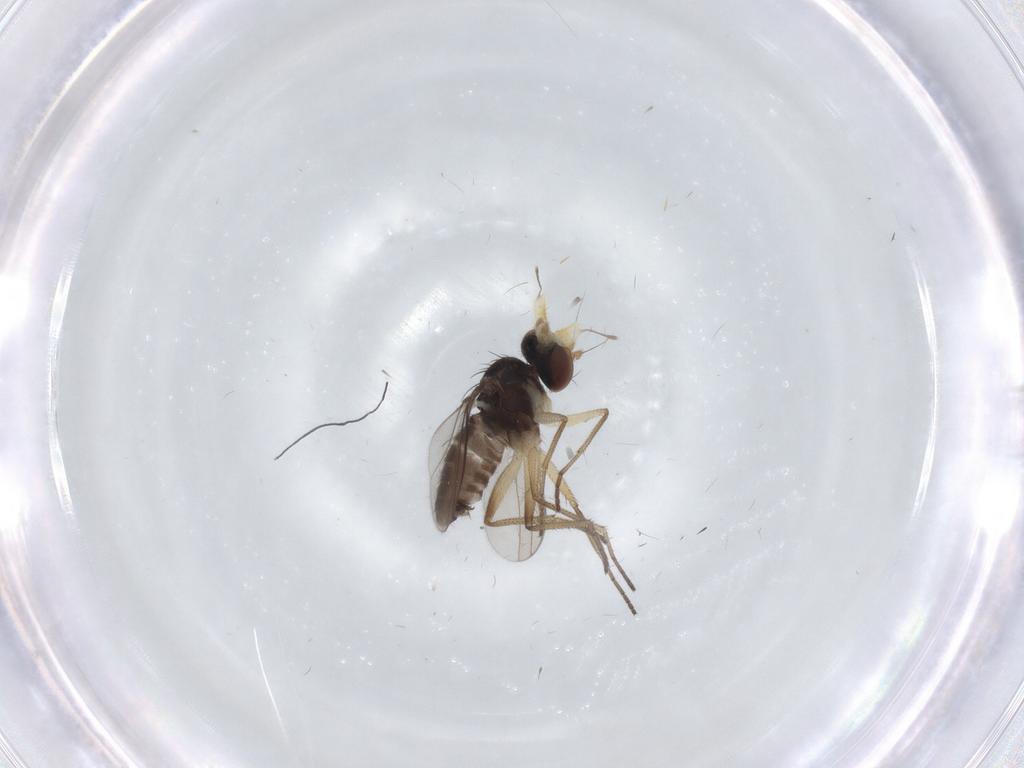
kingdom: Animalia
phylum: Arthropoda
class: Insecta
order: Diptera
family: Dolichopodidae
